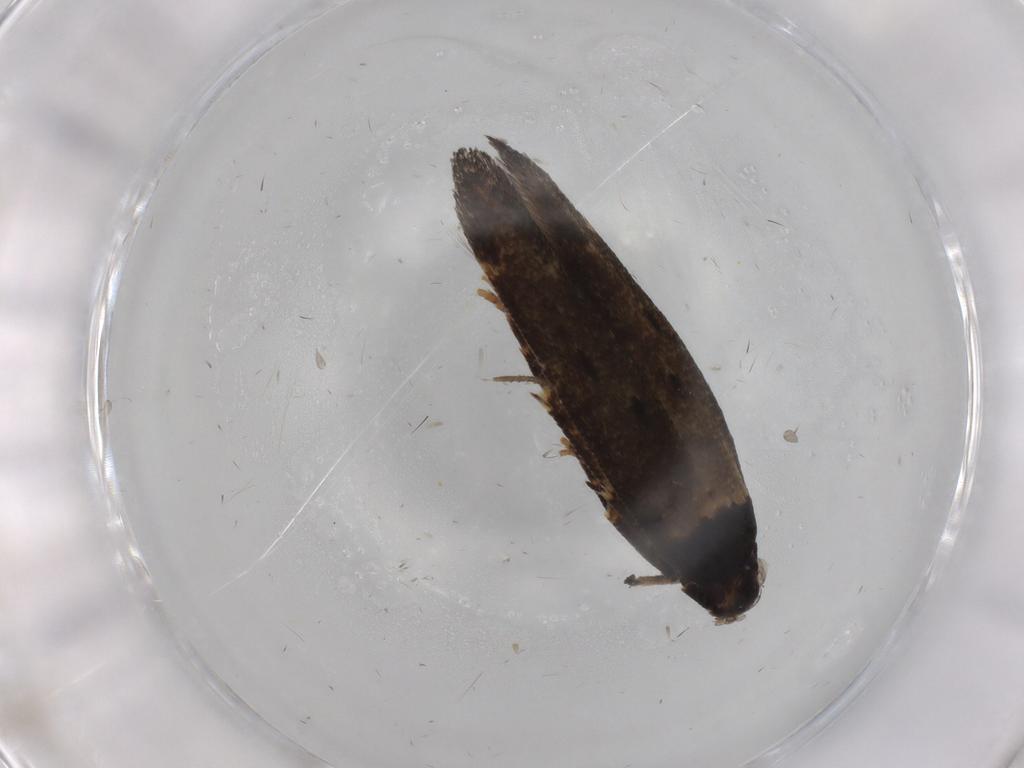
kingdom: Animalia
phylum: Arthropoda
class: Insecta
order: Lepidoptera
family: Cosmopterigidae
